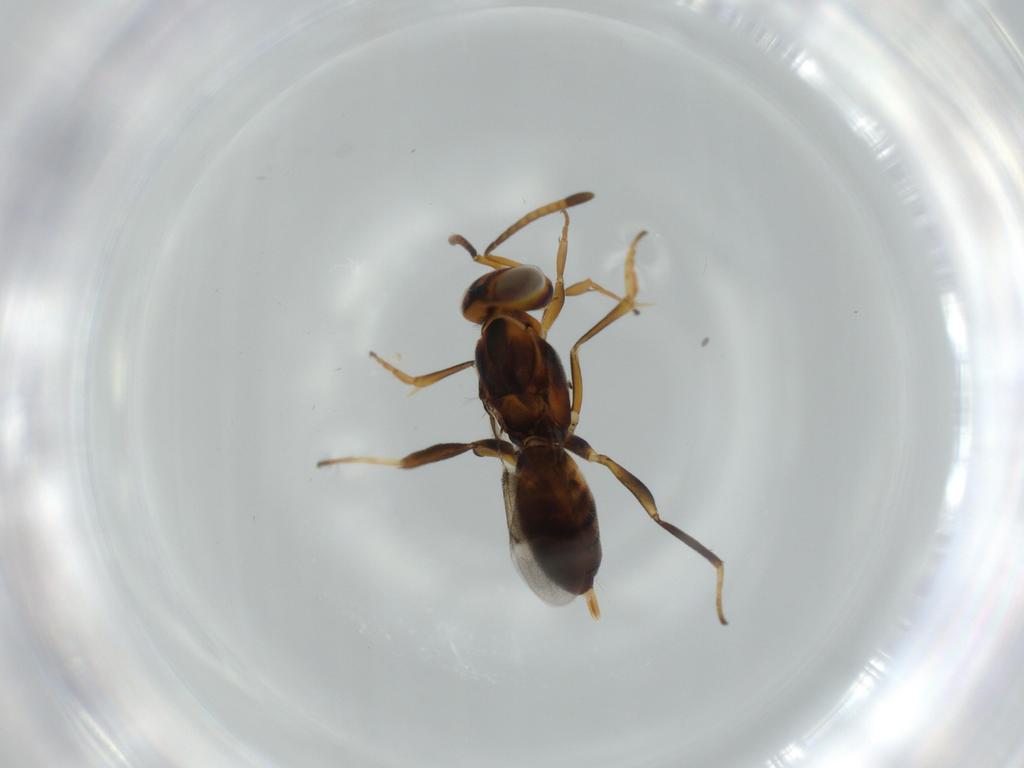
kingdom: Animalia
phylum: Arthropoda
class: Insecta
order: Hymenoptera
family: Eupelmidae
